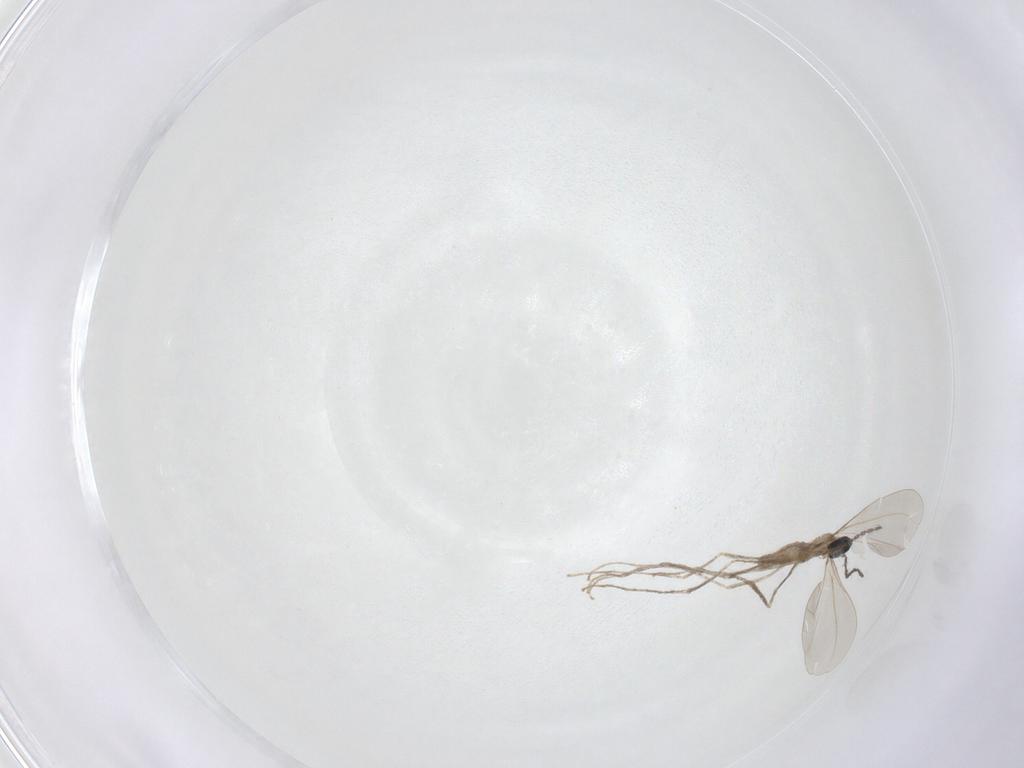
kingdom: Animalia
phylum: Arthropoda
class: Insecta
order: Diptera
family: Cecidomyiidae
